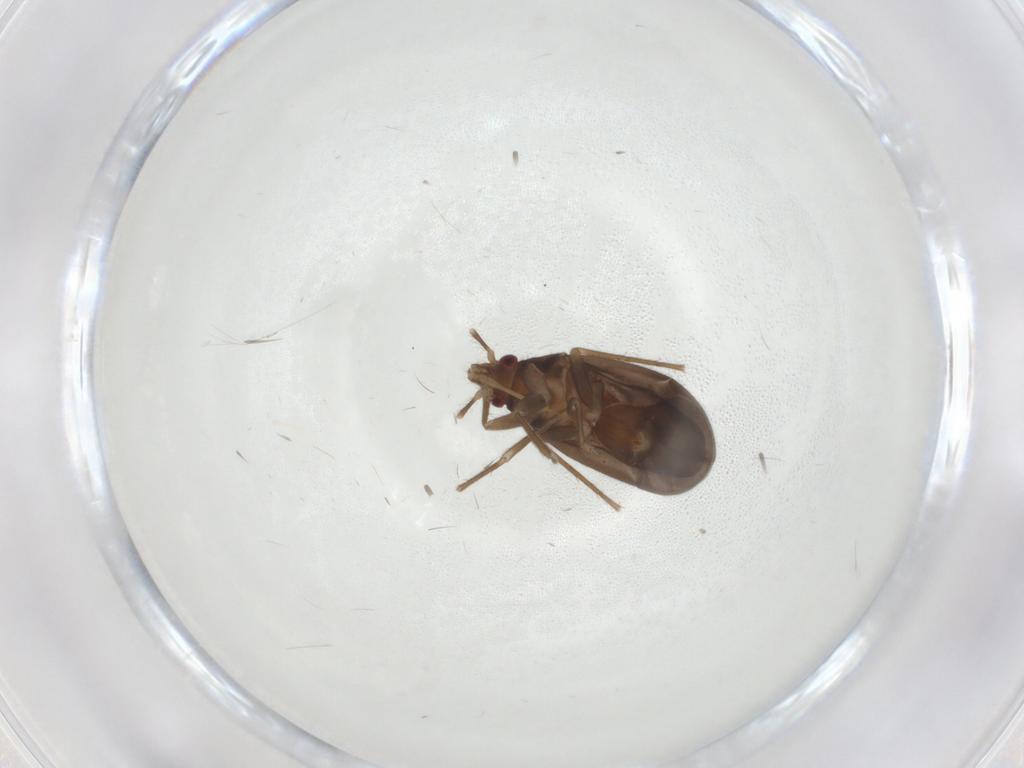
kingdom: Animalia
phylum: Arthropoda
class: Insecta
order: Hemiptera
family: Ceratocombidae
